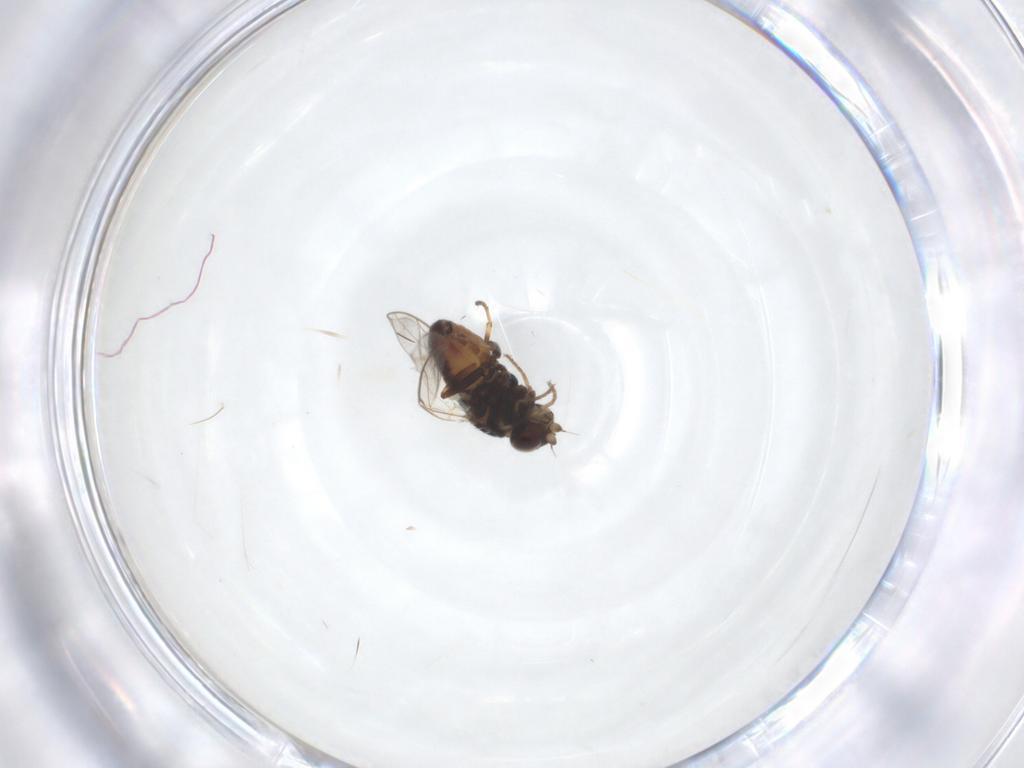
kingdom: Animalia
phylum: Arthropoda
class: Insecta
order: Diptera
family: Chloropidae
